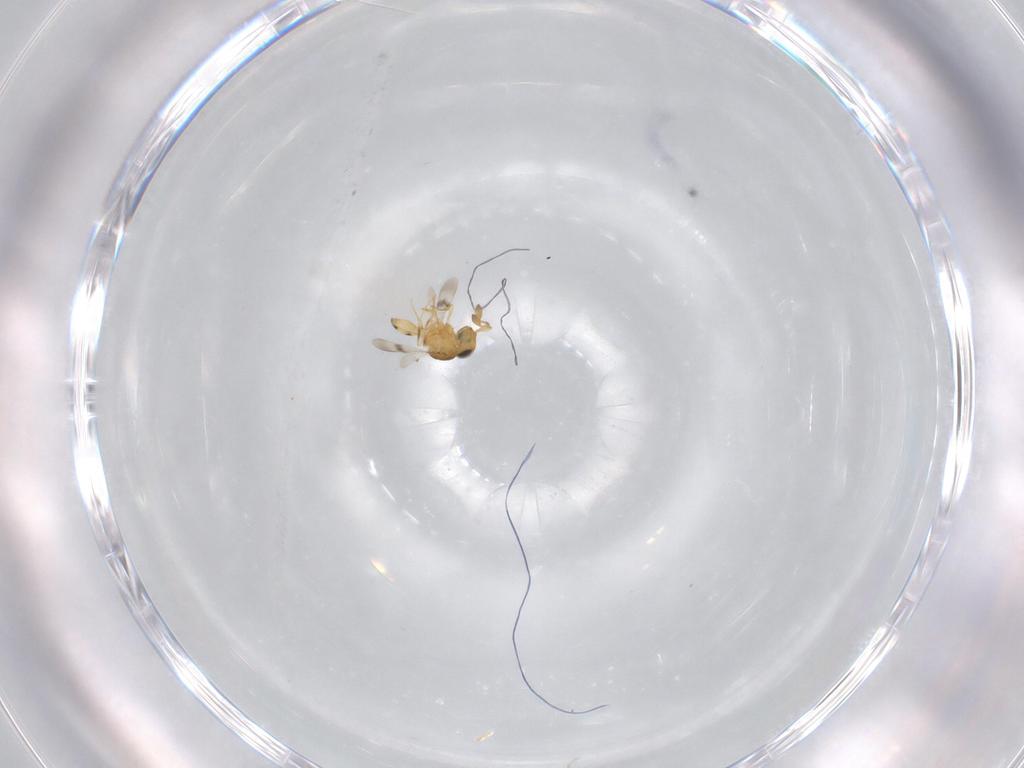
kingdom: Animalia
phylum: Arthropoda
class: Insecta
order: Hymenoptera
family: Scelionidae
